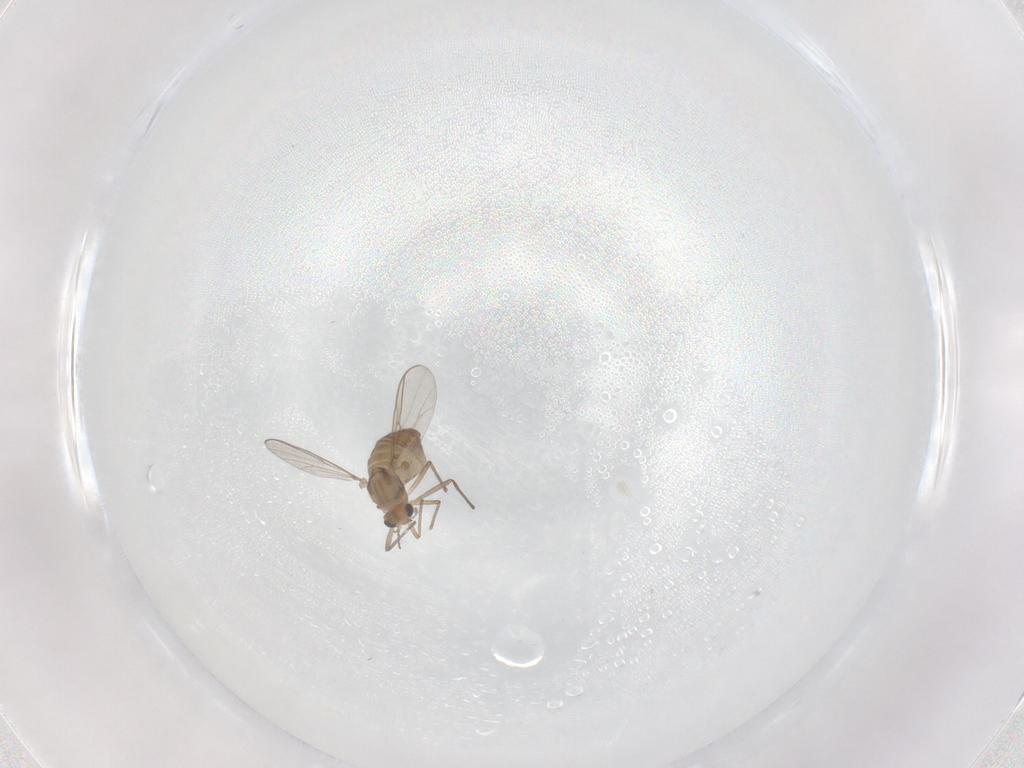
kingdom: Animalia
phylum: Arthropoda
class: Insecta
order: Diptera
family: Chironomidae
